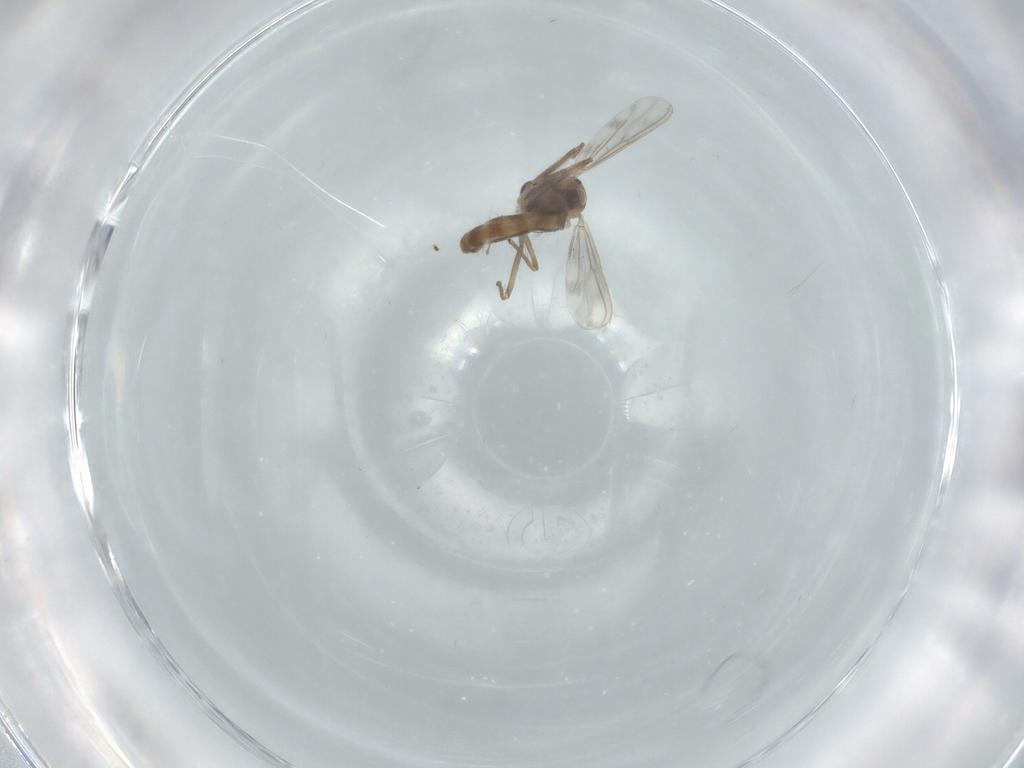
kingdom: Animalia
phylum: Arthropoda
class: Insecta
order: Diptera
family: Chironomidae
